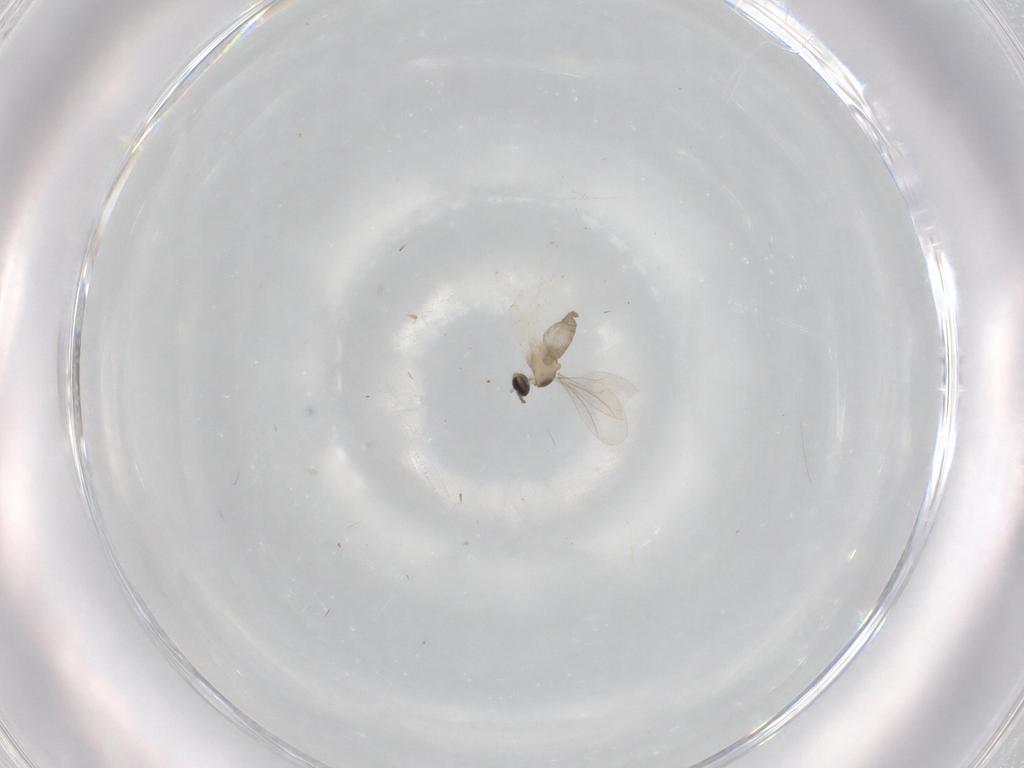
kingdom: Animalia
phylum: Arthropoda
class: Insecta
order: Diptera
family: Cecidomyiidae
